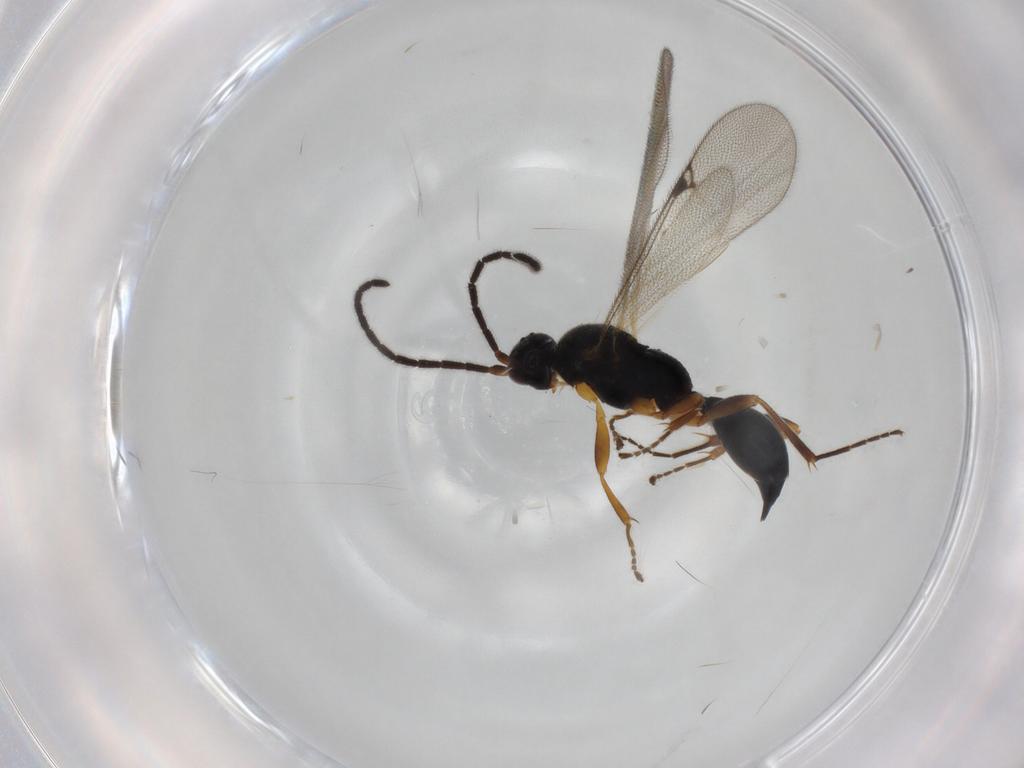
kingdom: Animalia
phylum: Arthropoda
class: Insecta
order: Hymenoptera
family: Proctotrupidae
